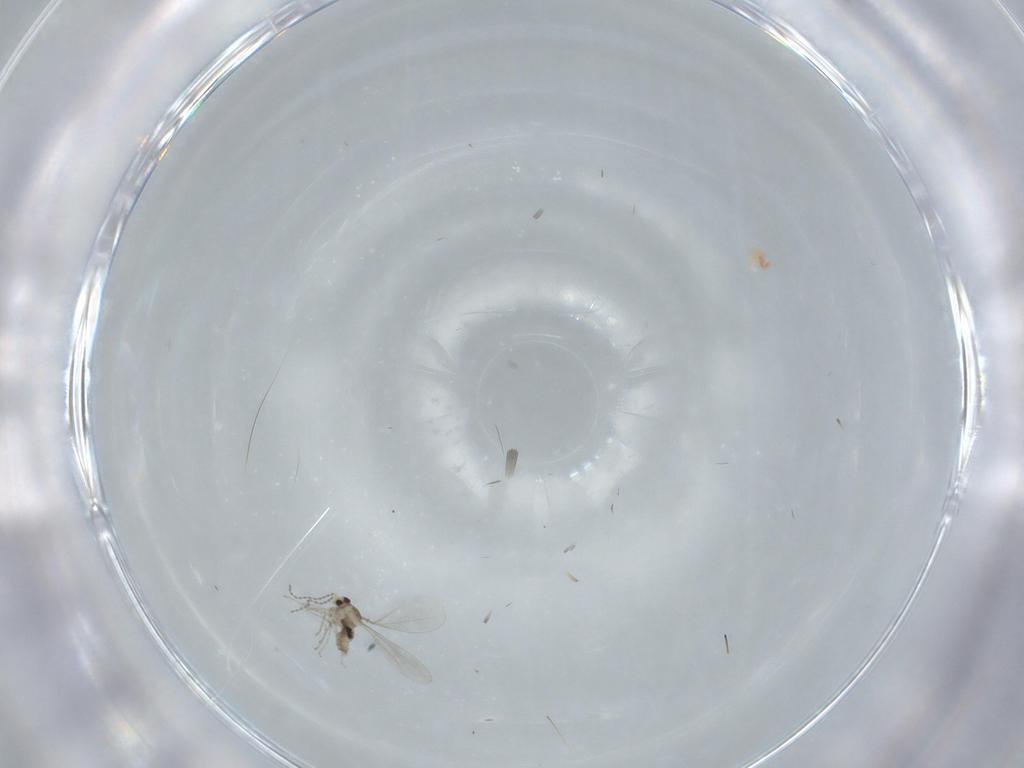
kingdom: Animalia
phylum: Arthropoda
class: Insecta
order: Diptera
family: Cecidomyiidae
